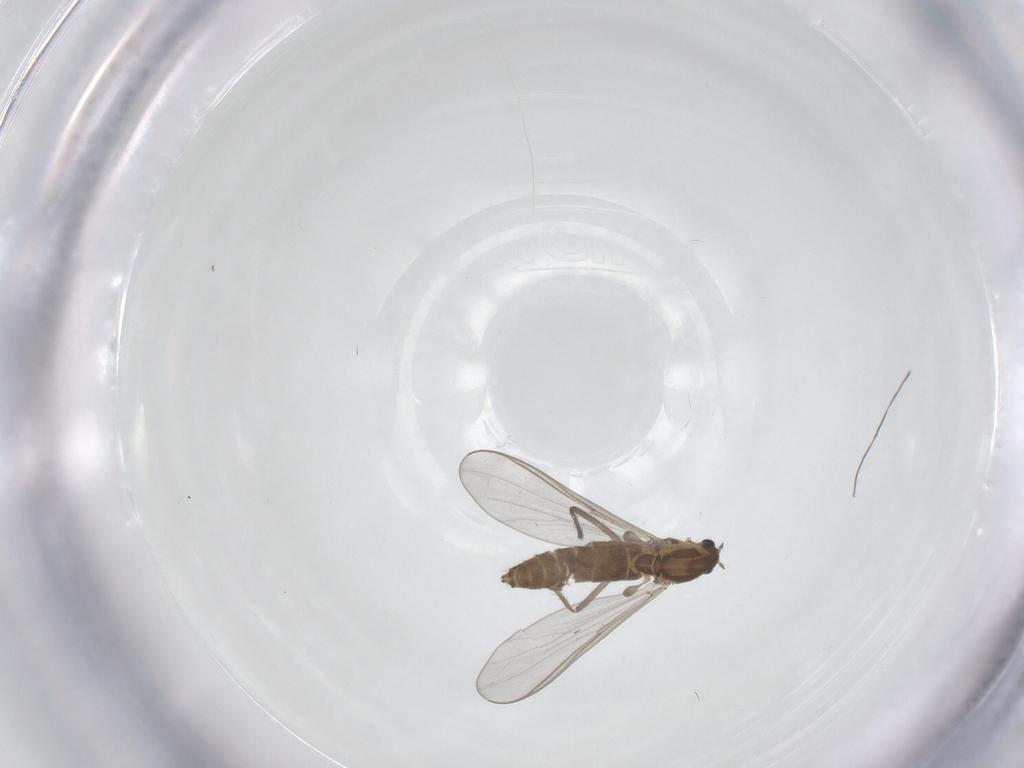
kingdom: Animalia
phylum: Arthropoda
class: Insecta
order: Diptera
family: Chironomidae
